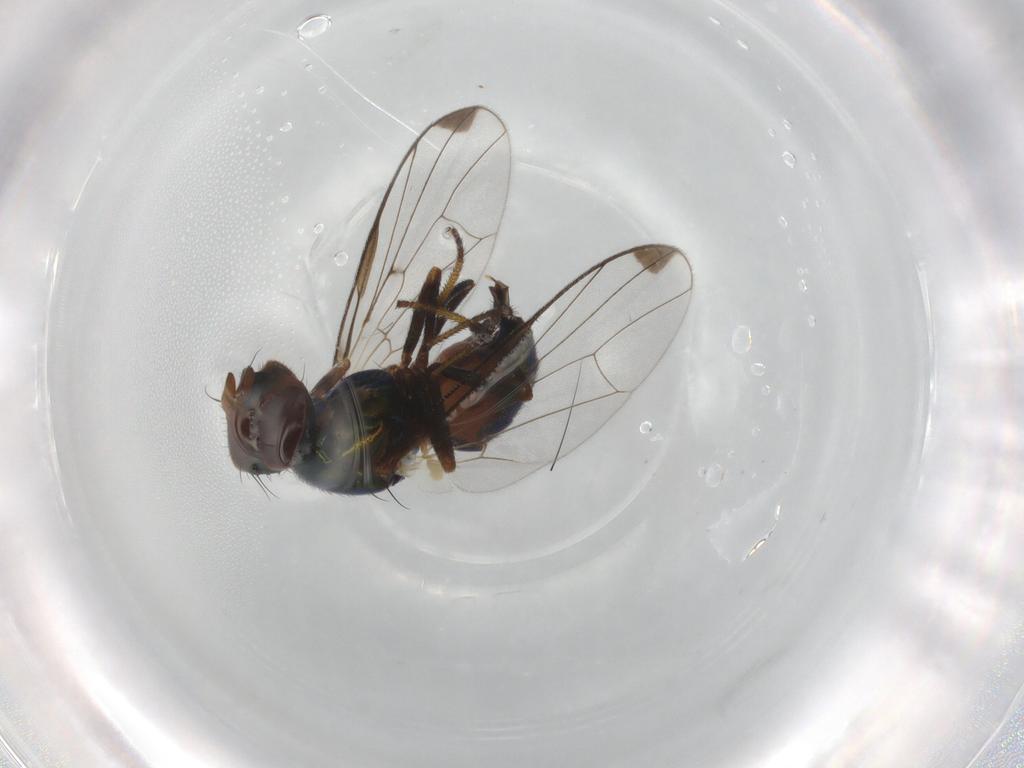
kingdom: Animalia
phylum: Arthropoda
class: Insecta
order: Diptera
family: Platystomatidae
